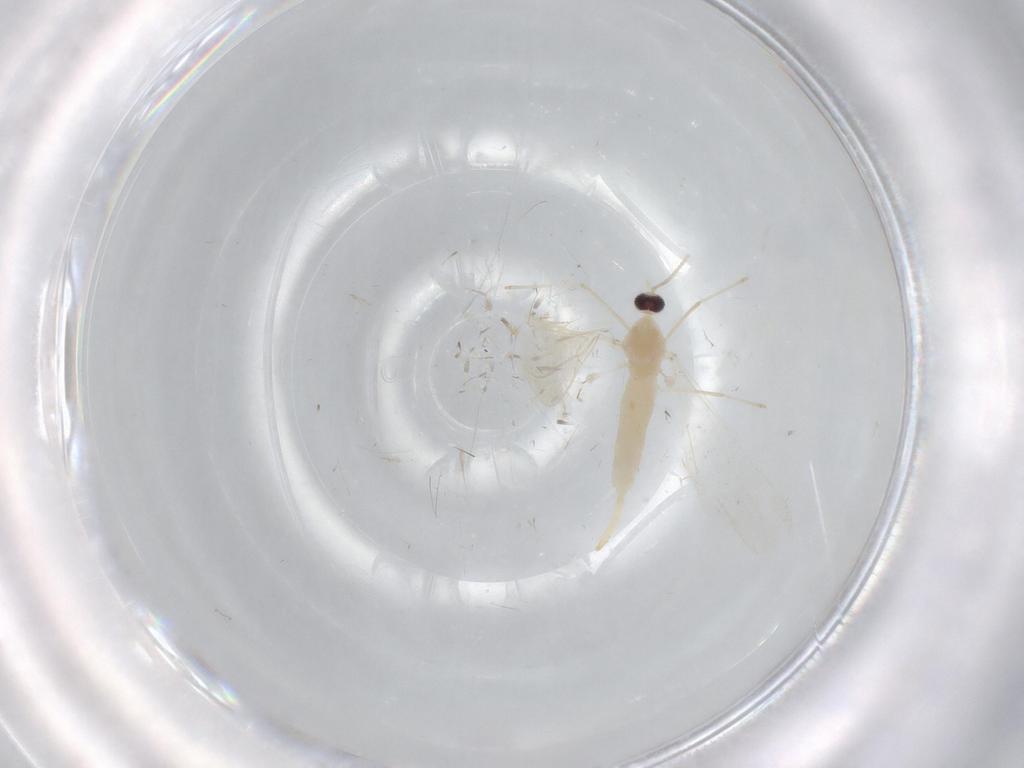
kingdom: Animalia
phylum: Arthropoda
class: Insecta
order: Diptera
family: Cecidomyiidae
